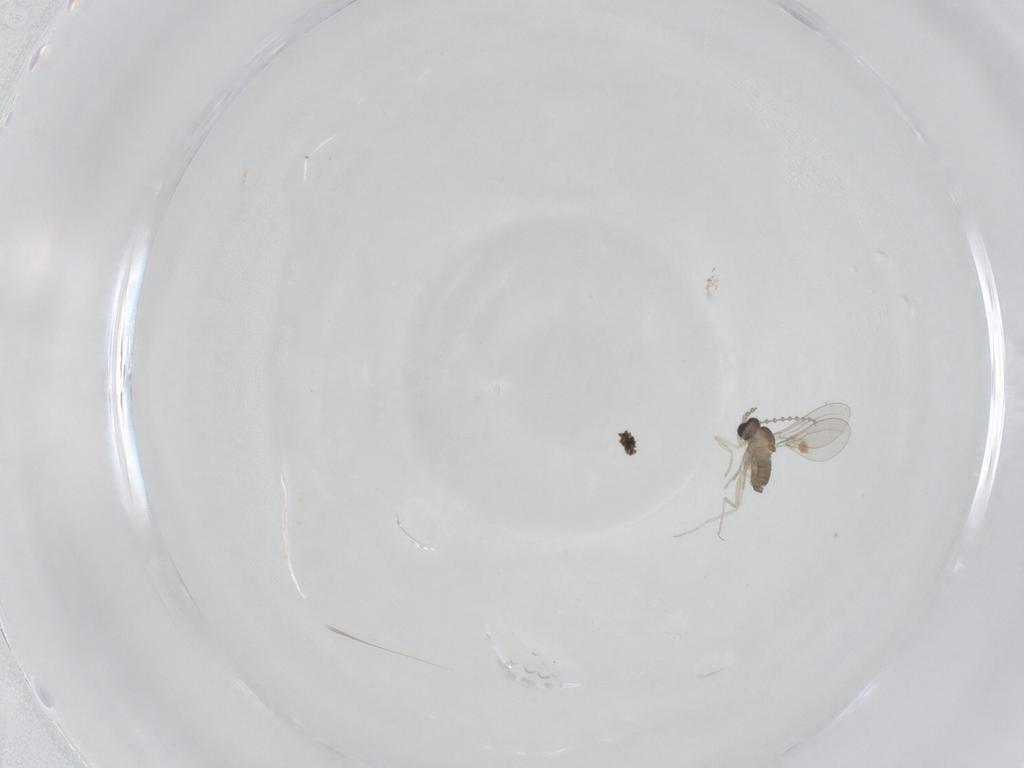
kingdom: Animalia
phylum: Arthropoda
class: Insecta
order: Diptera
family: Cecidomyiidae
